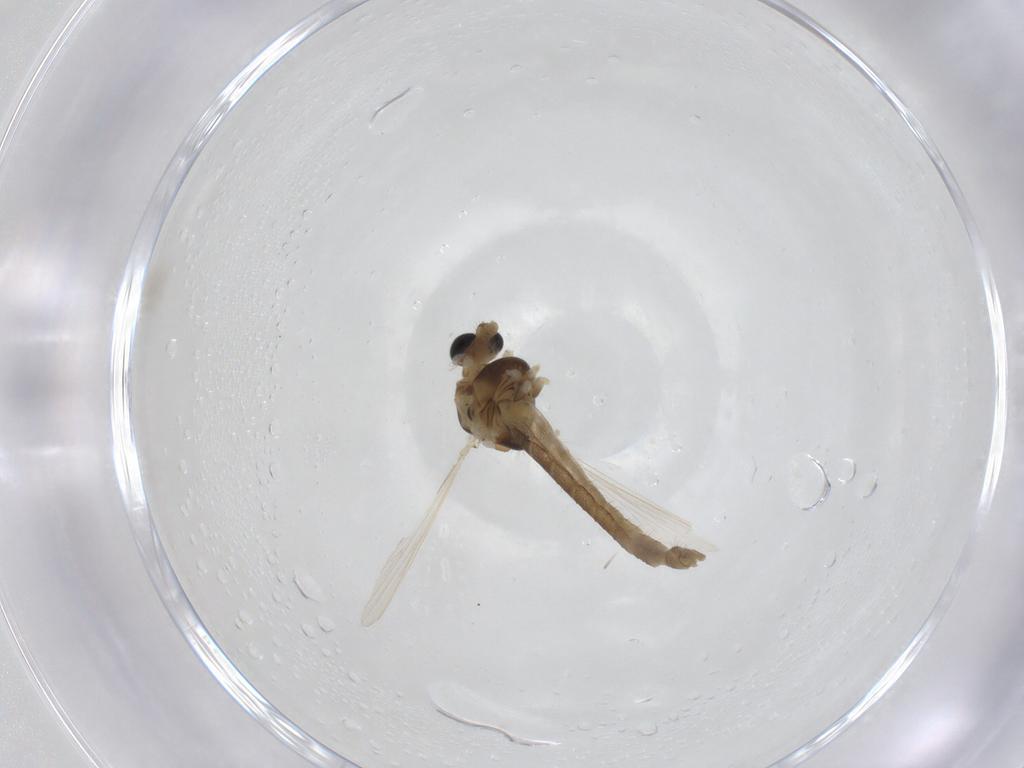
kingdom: Animalia
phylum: Arthropoda
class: Insecta
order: Diptera
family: Chironomidae
